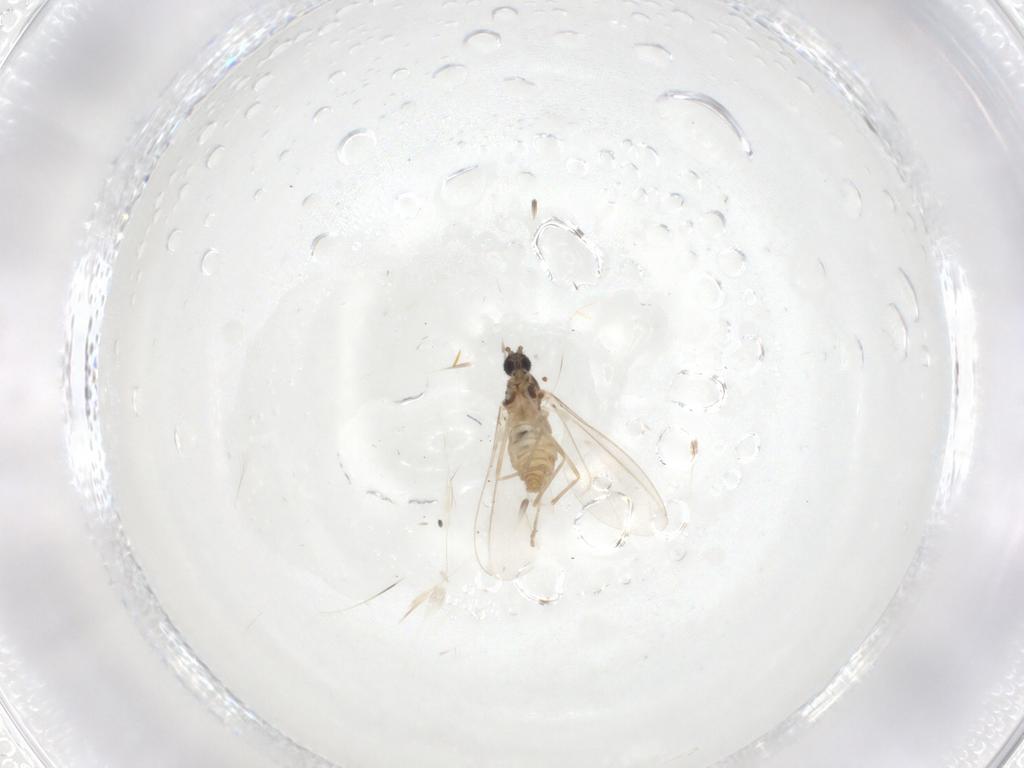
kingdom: Animalia
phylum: Arthropoda
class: Insecta
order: Diptera
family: Cecidomyiidae
